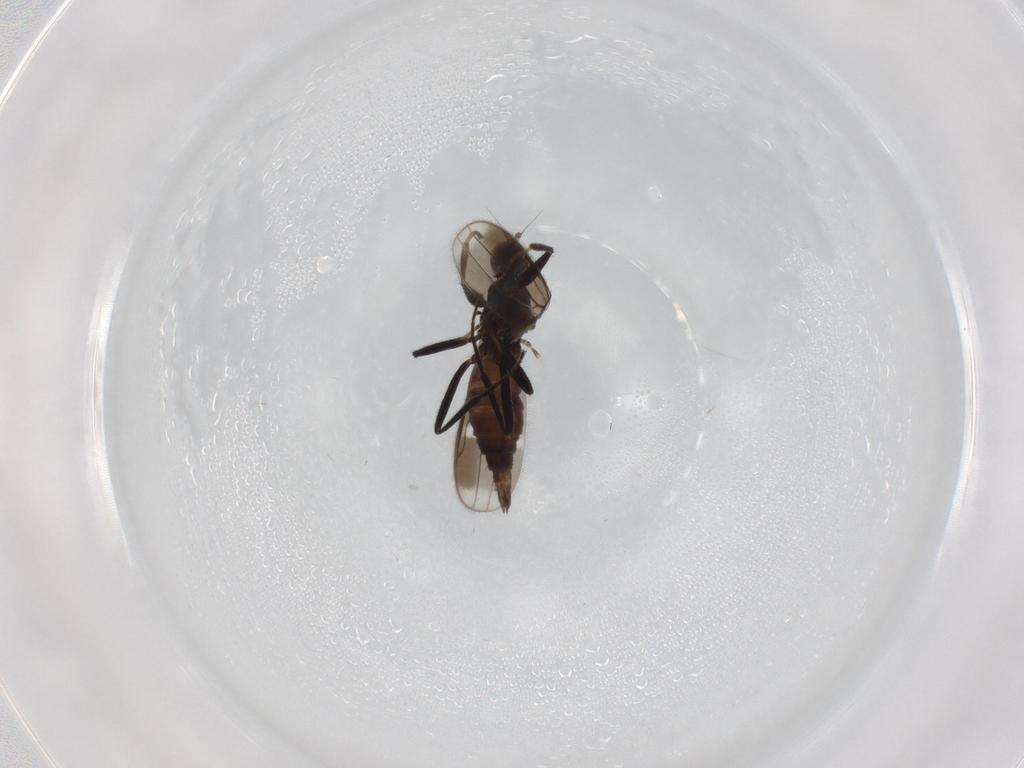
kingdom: Animalia
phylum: Arthropoda
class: Insecta
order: Diptera
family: Hybotidae
